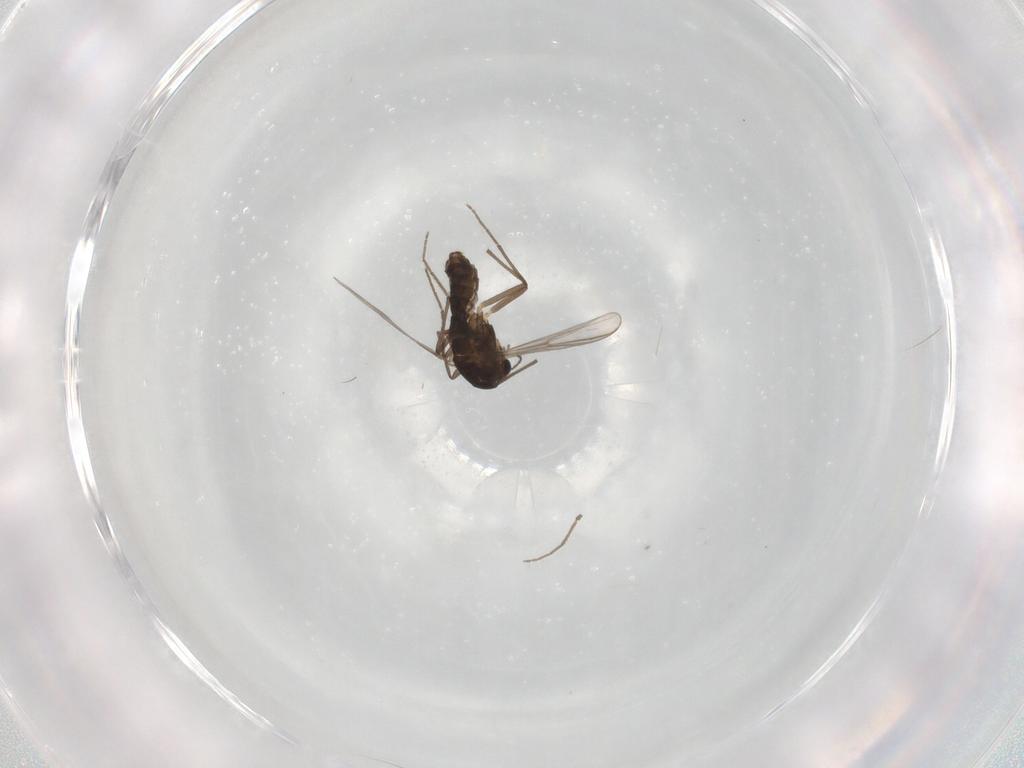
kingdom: Animalia
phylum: Arthropoda
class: Insecta
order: Diptera
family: Chironomidae
